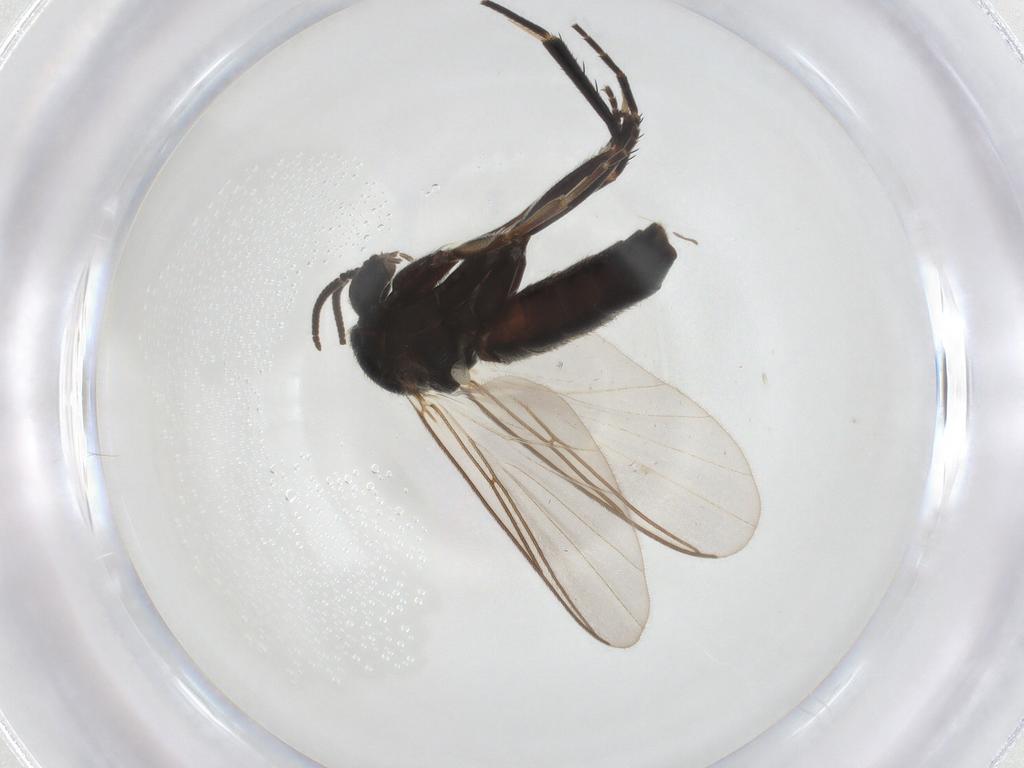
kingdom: Animalia
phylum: Arthropoda
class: Insecta
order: Diptera
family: Mycetophilidae
